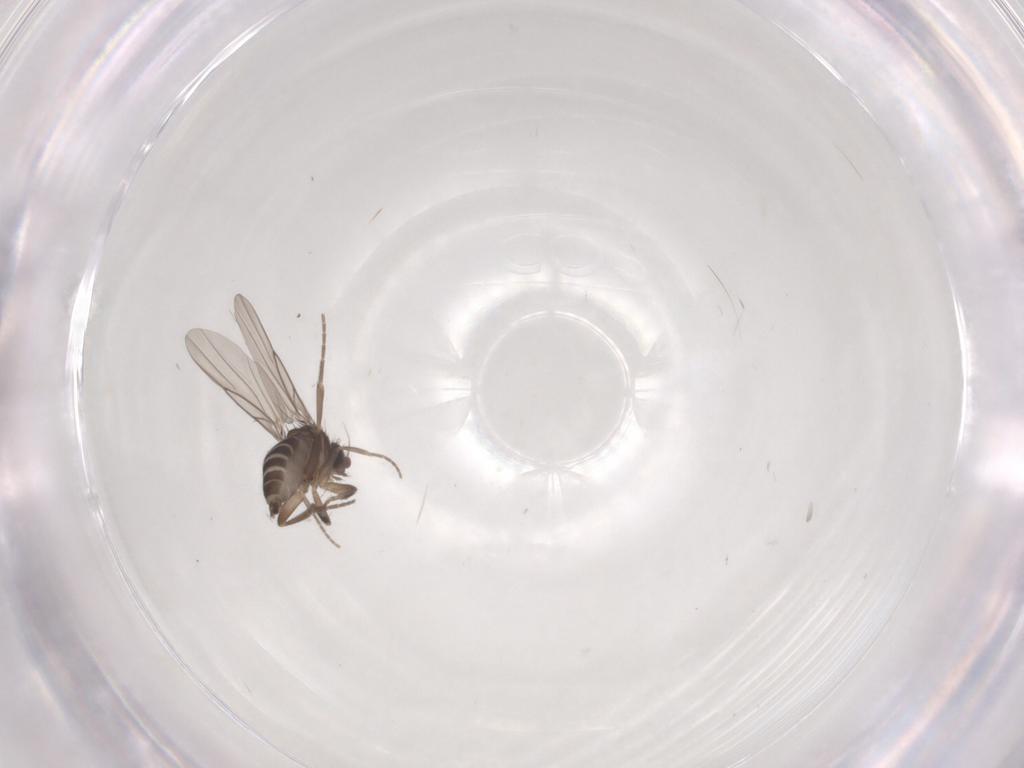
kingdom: Animalia
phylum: Arthropoda
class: Insecta
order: Diptera
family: Phoridae
